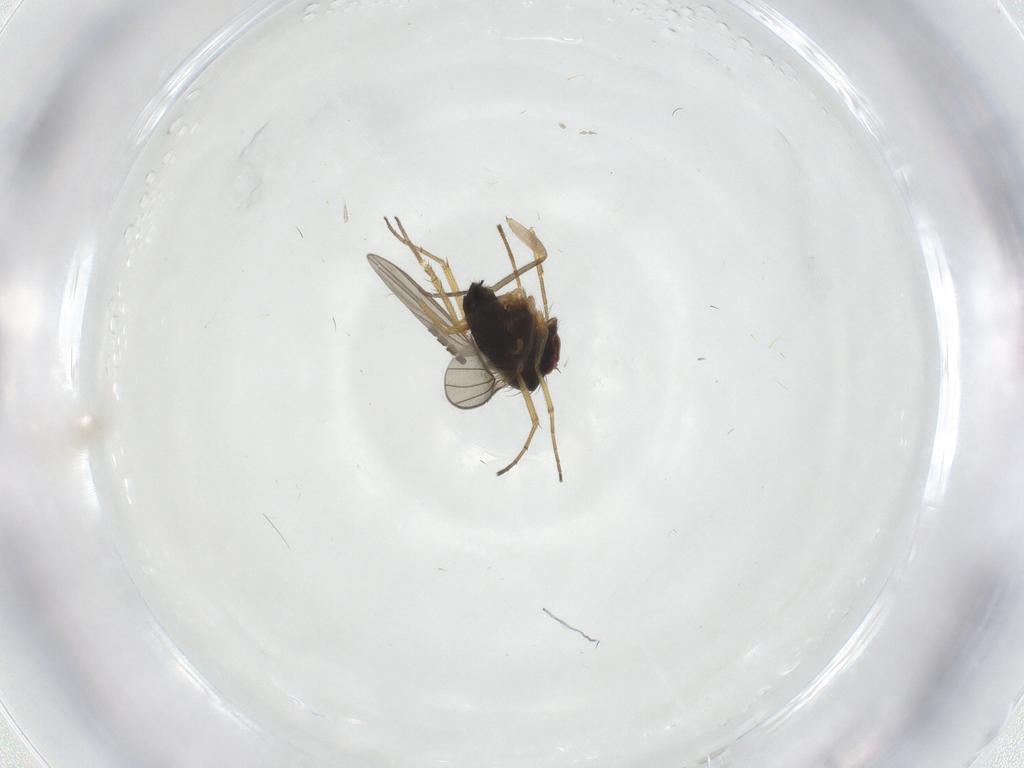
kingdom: Animalia
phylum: Arthropoda
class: Insecta
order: Diptera
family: Cecidomyiidae
